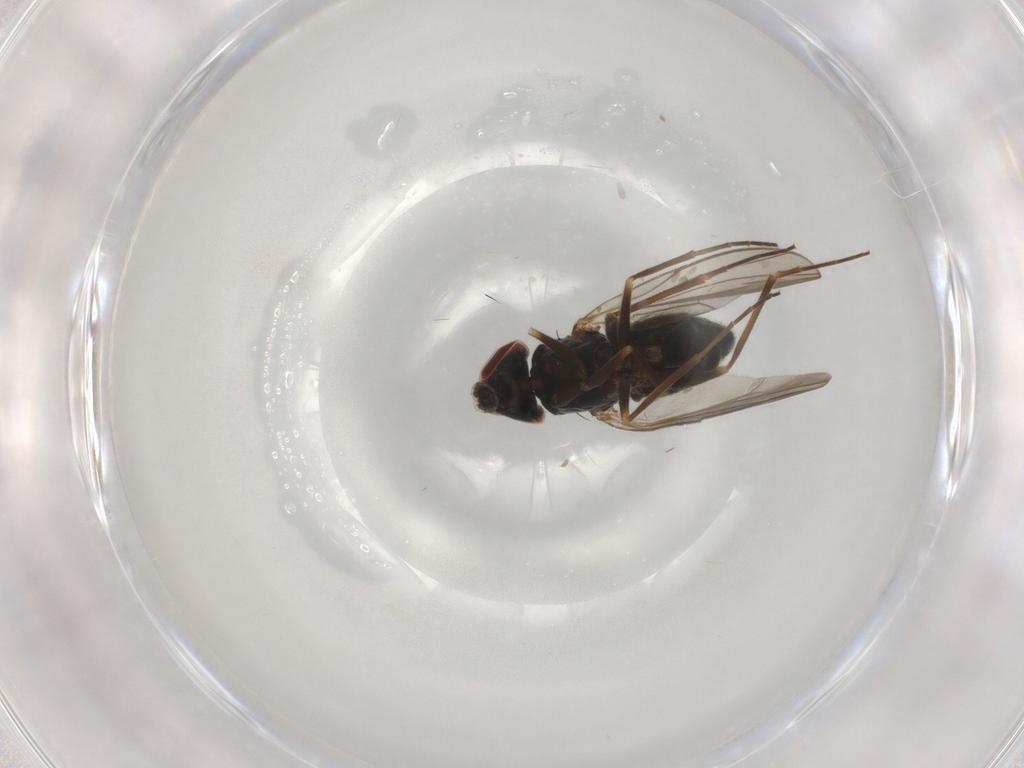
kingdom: Animalia
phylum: Arthropoda
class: Insecta
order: Diptera
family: Dolichopodidae
